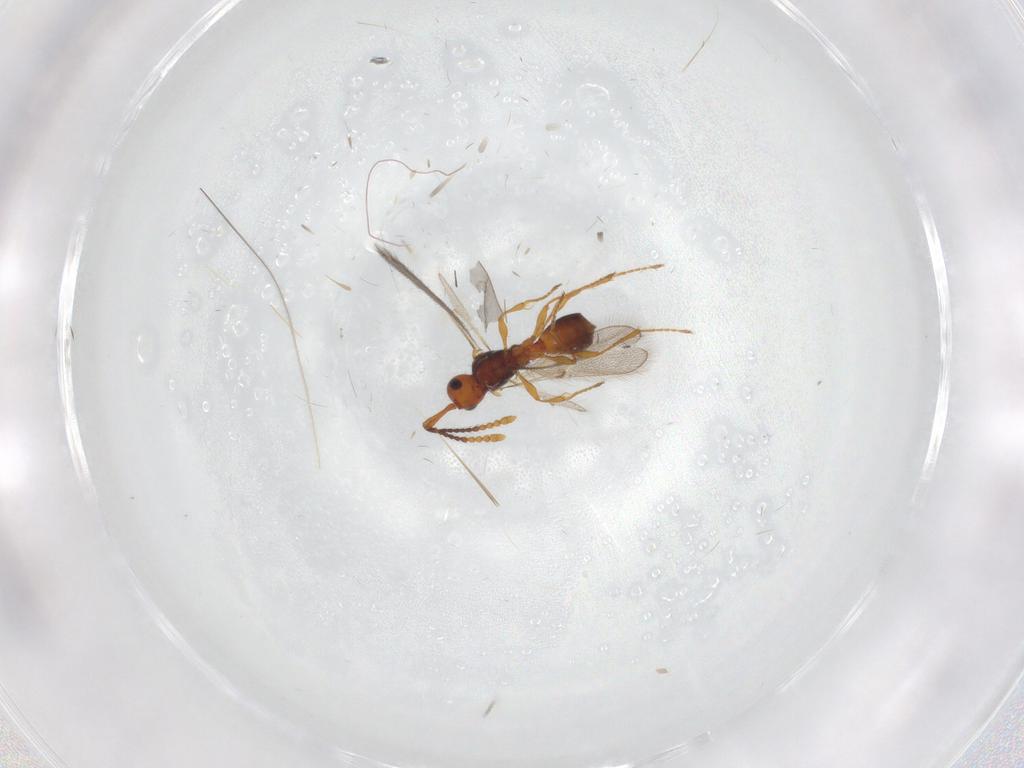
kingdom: Animalia
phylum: Arthropoda
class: Insecta
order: Hymenoptera
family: Diapriidae
